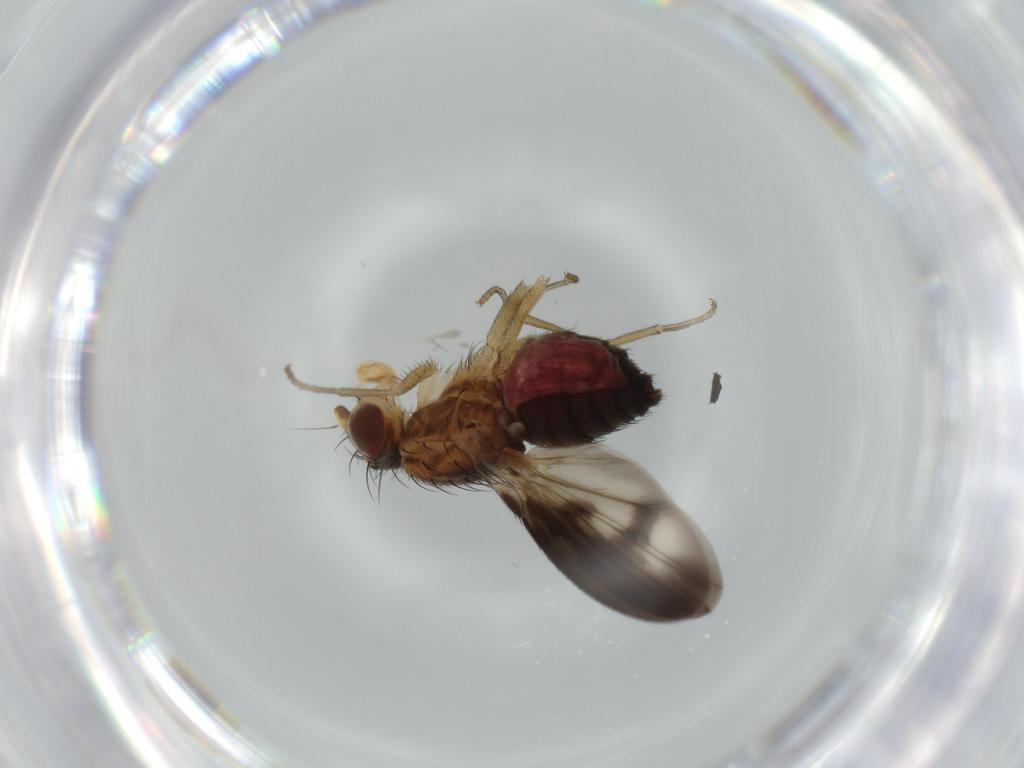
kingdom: Animalia
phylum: Arthropoda
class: Insecta
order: Diptera
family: Heleomyzidae
